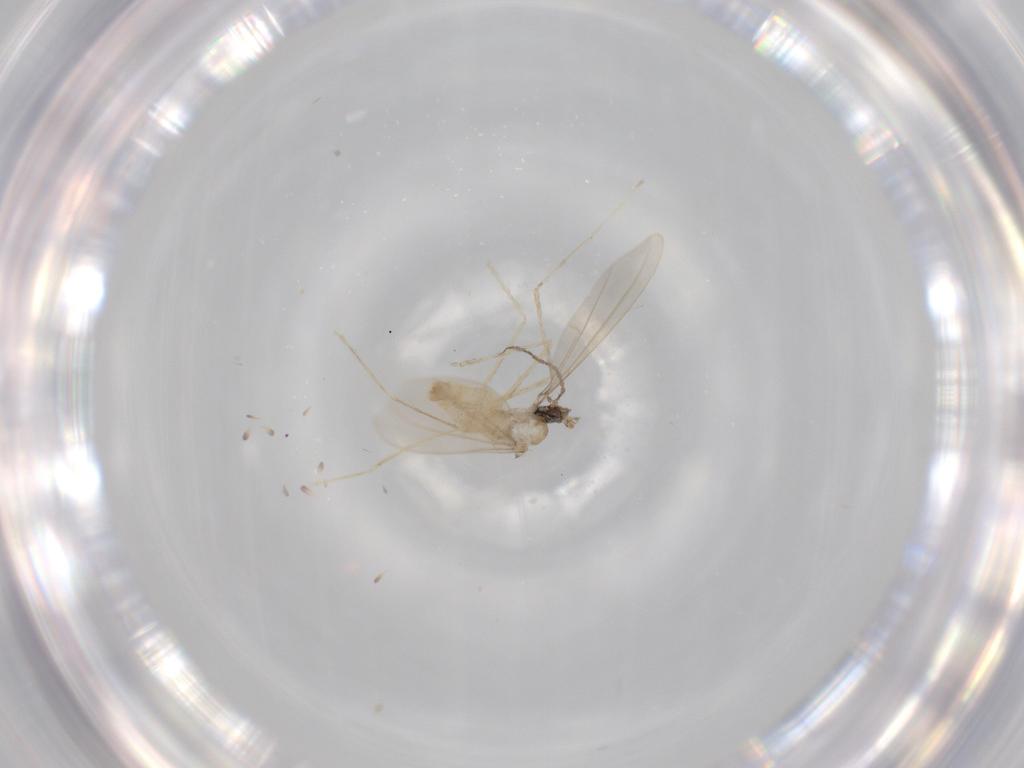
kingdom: Animalia
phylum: Arthropoda
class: Insecta
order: Diptera
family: Cecidomyiidae
